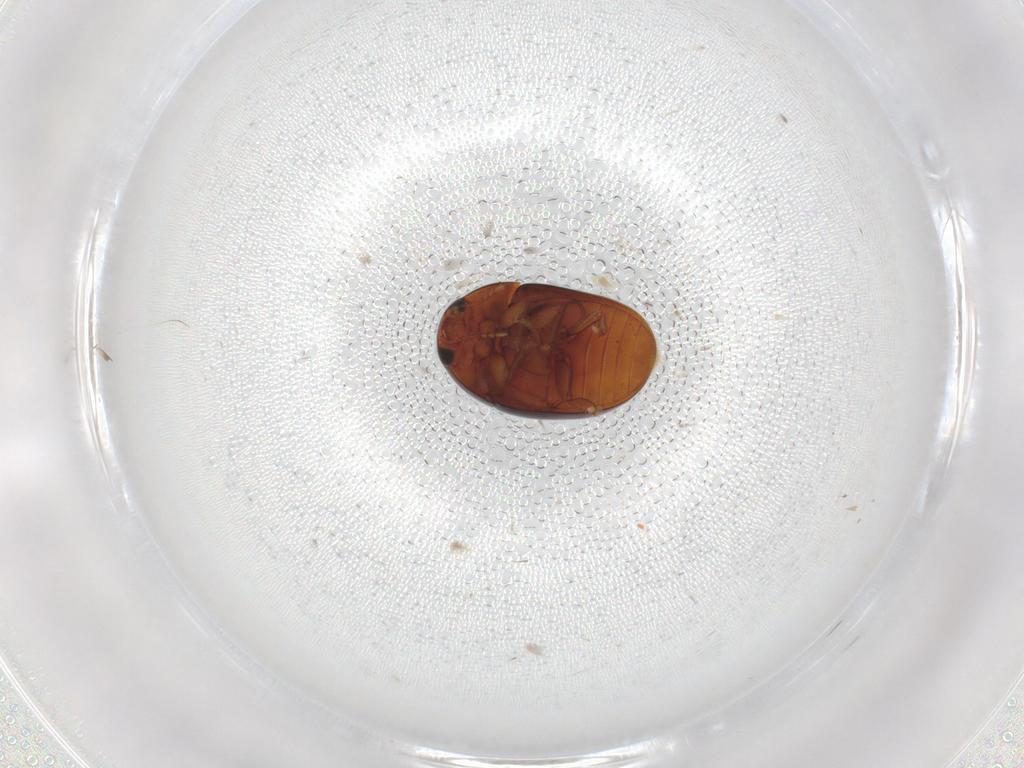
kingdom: Animalia
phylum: Arthropoda
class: Insecta
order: Coleoptera
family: Phalacridae
